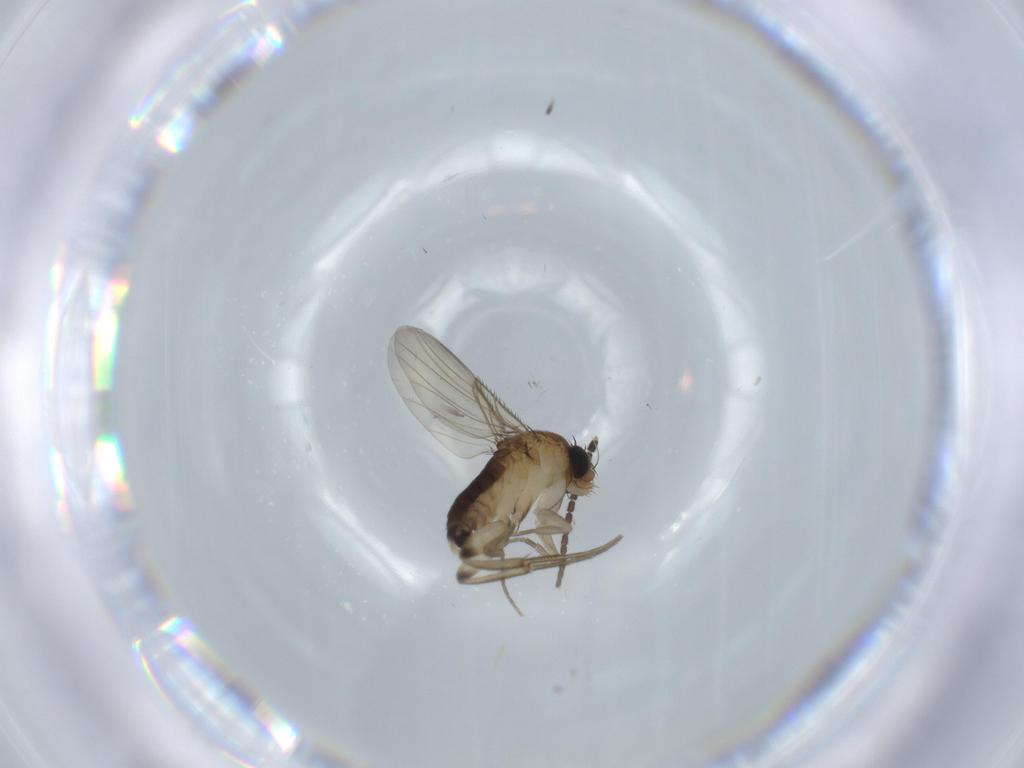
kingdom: Animalia
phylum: Arthropoda
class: Insecta
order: Diptera
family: Phoridae
